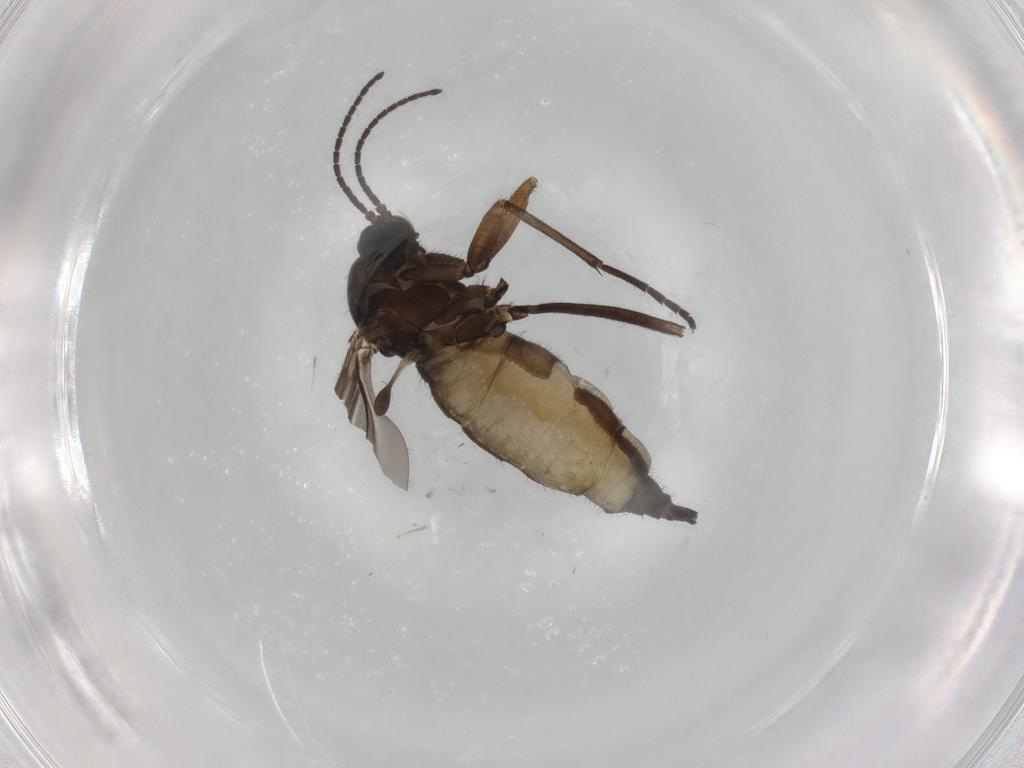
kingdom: Animalia
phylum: Arthropoda
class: Insecta
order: Diptera
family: Sciaridae
